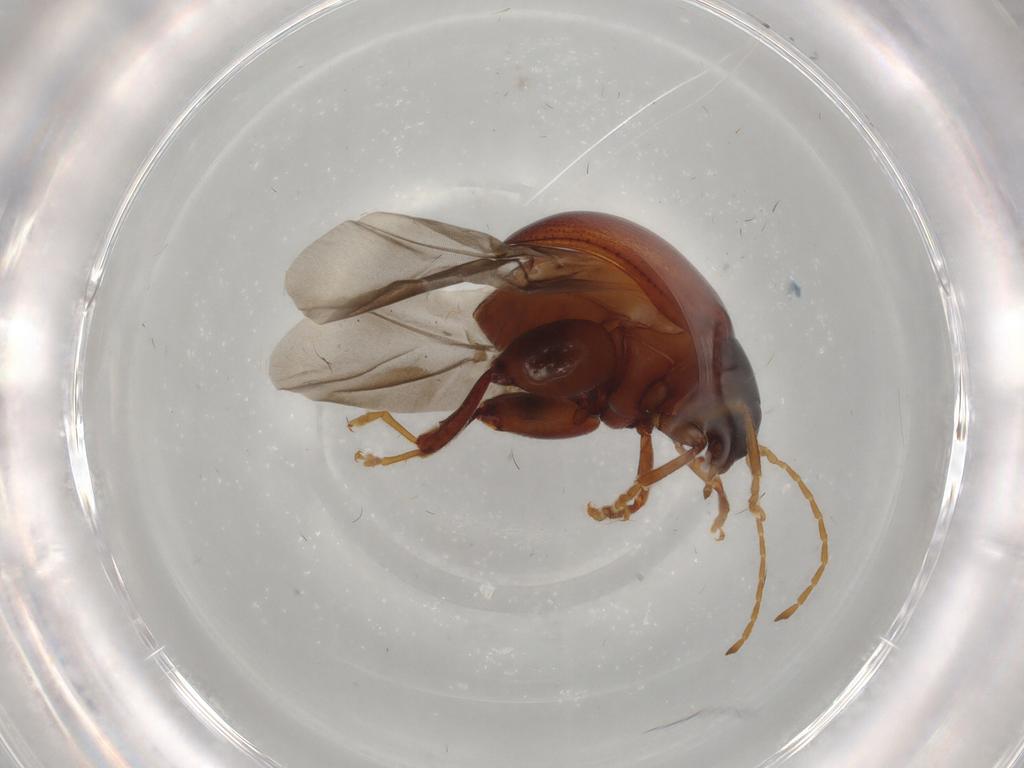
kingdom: Animalia
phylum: Arthropoda
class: Insecta
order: Coleoptera
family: Chrysomelidae
